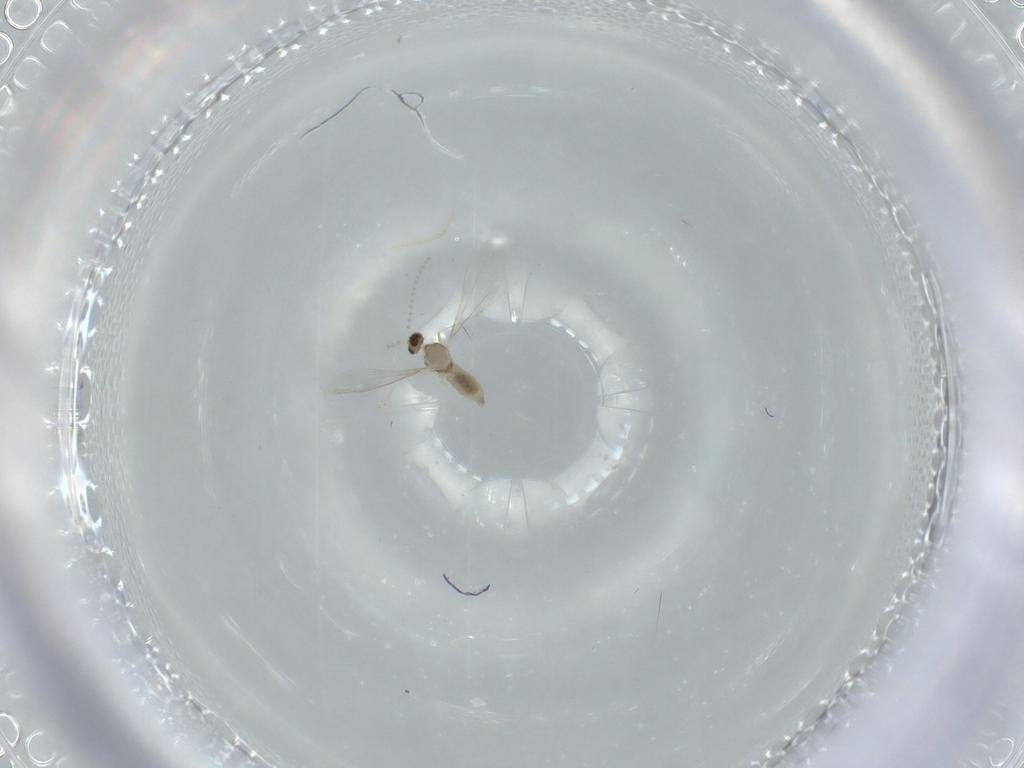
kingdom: Animalia
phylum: Arthropoda
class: Insecta
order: Diptera
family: Cecidomyiidae
